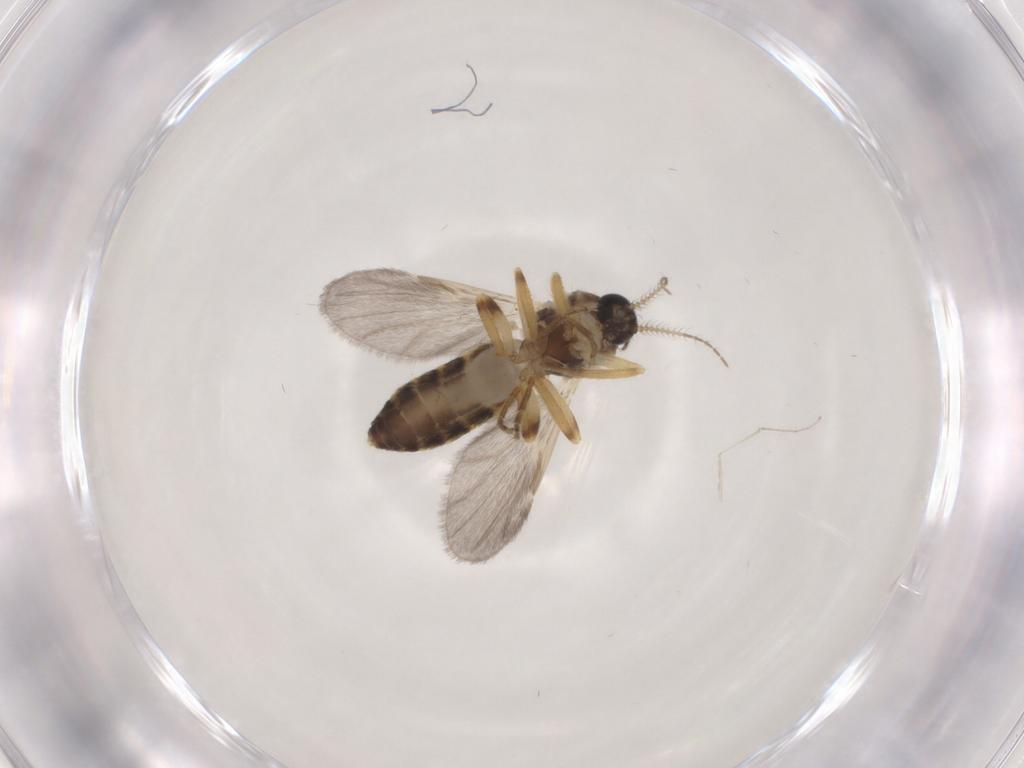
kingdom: Animalia
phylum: Arthropoda
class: Insecta
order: Diptera
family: Ceratopogonidae
